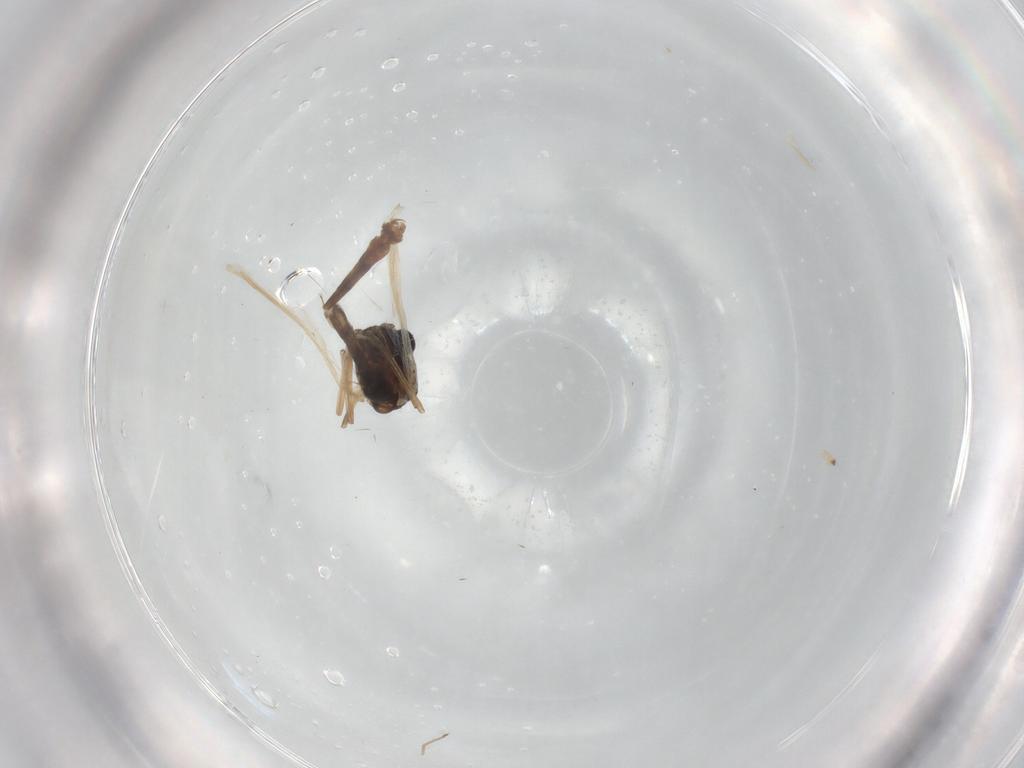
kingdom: Animalia
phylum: Arthropoda
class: Insecta
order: Diptera
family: Chironomidae
